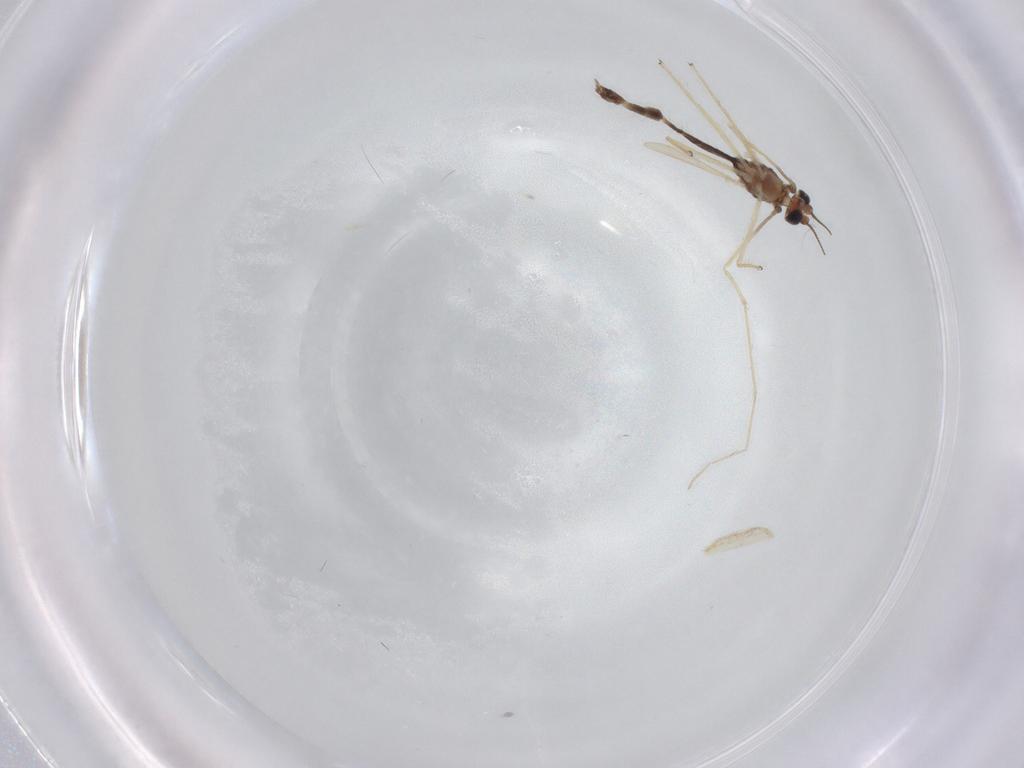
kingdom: Animalia
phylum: Arthropoda
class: Insecta
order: Diptera
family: Chironomidae
